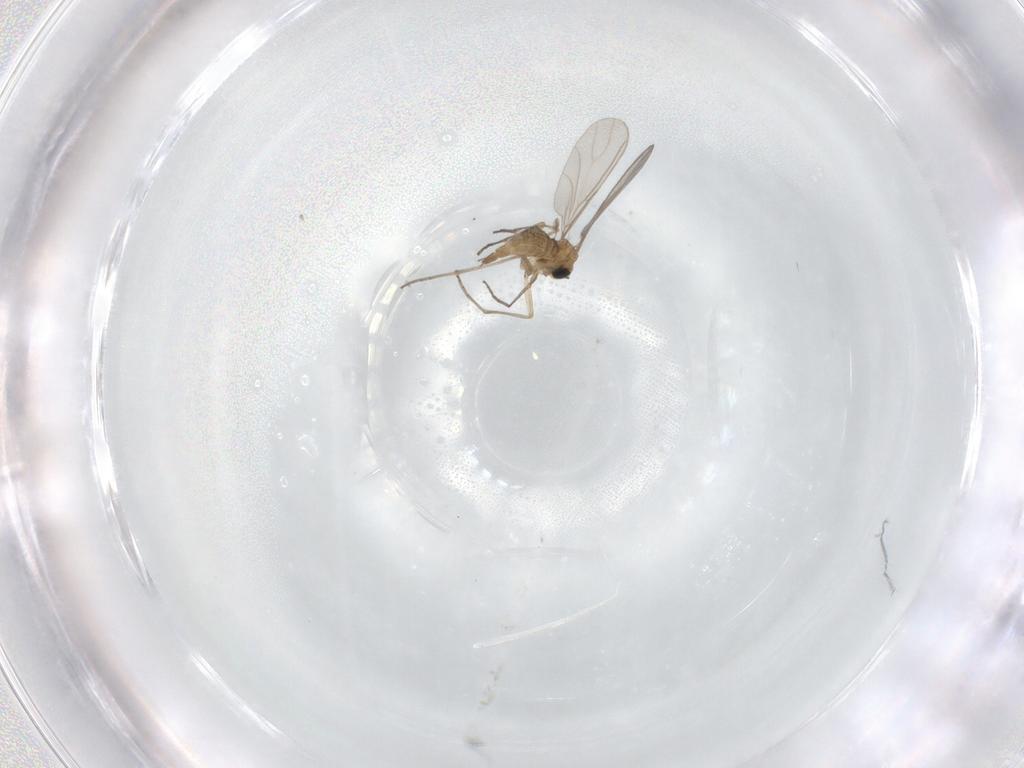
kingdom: Animalia
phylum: Arthropoda
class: Insecta
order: Diptera
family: Sciaridae
